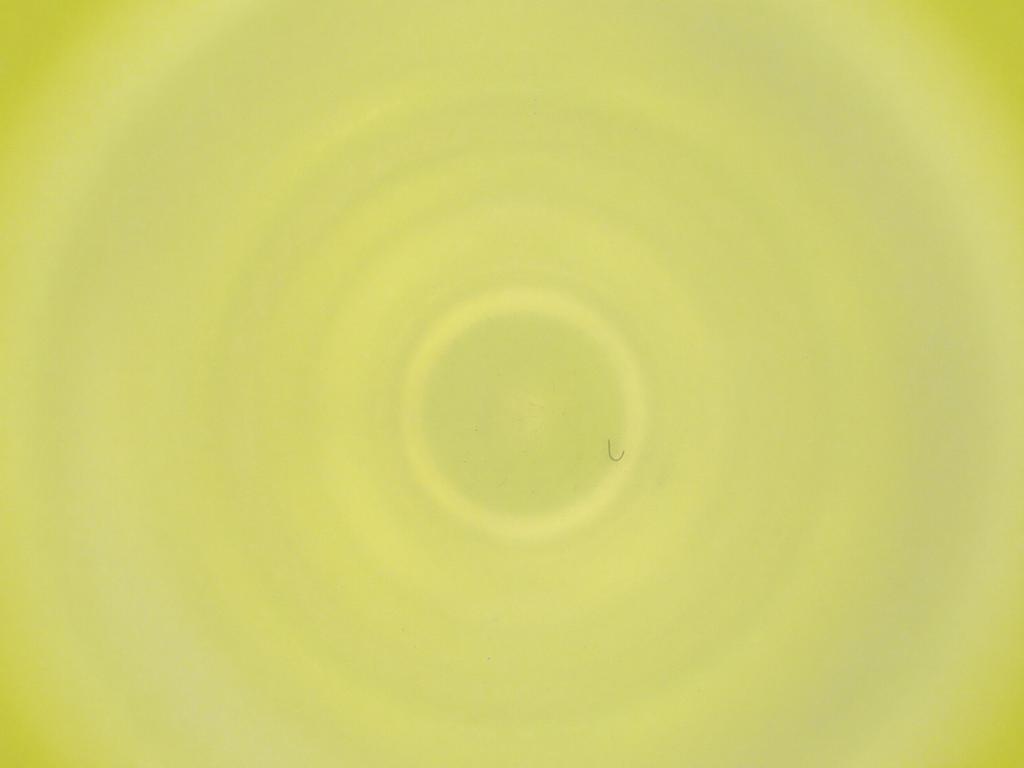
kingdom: Animalia
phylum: Arthropoda
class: Insecta
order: Diptera
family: Cecidomyiidae
